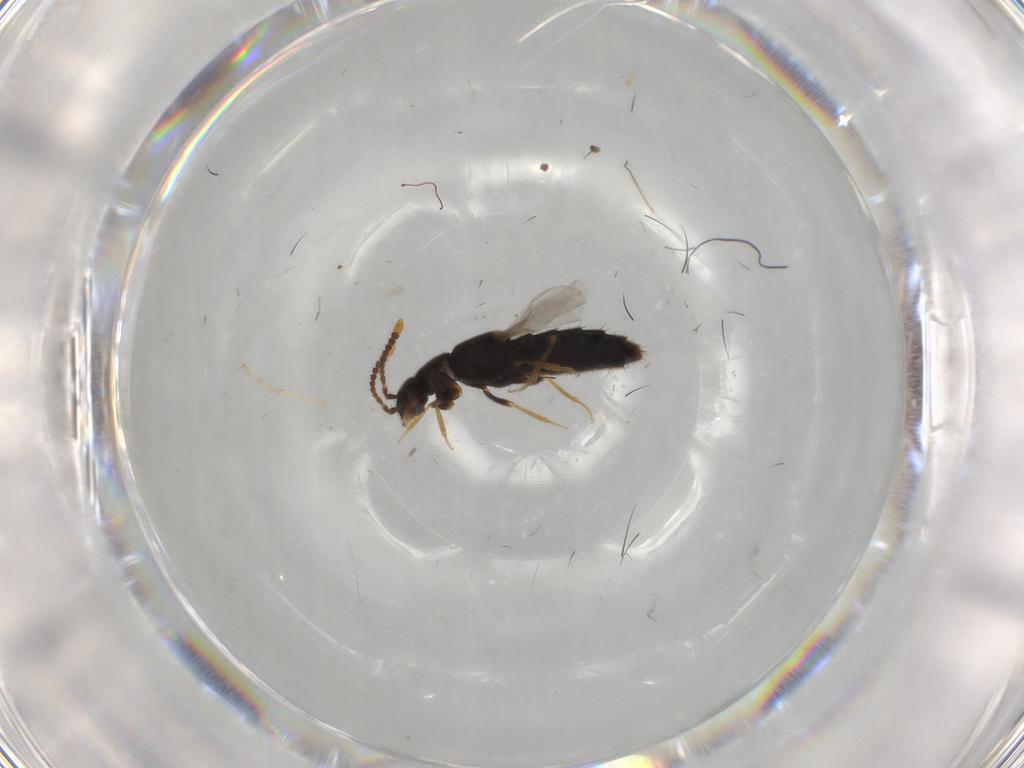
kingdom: Animalia
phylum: Arthropoda
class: Insecta
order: Coleoptera
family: Staphylinidae
